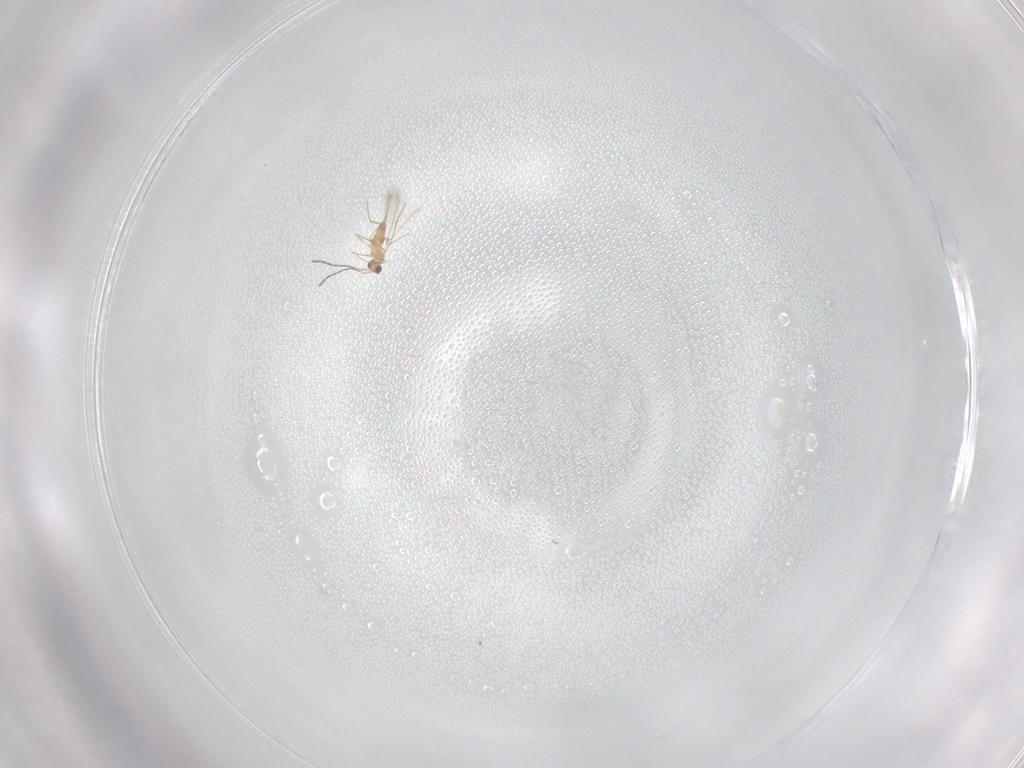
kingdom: Animalia
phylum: Arthropoda
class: Insecta
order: Hymenoptera
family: Mymaridae
